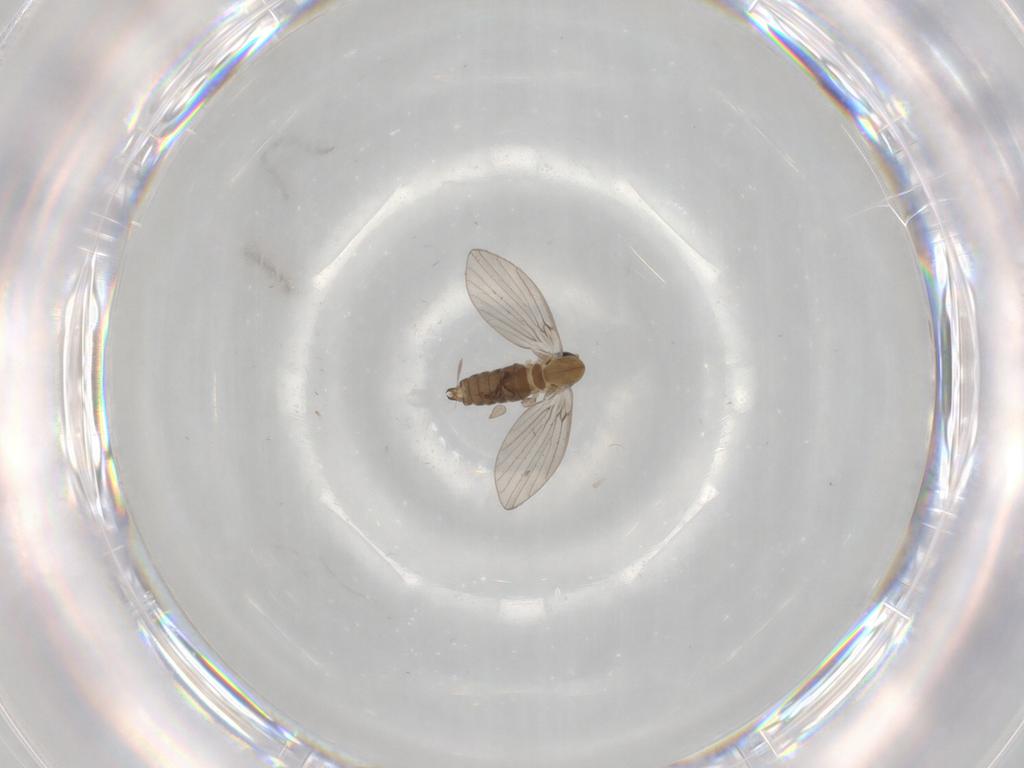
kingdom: Animalia
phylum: Arthropoda
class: Insecta
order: Diptera
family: Psychodidae
